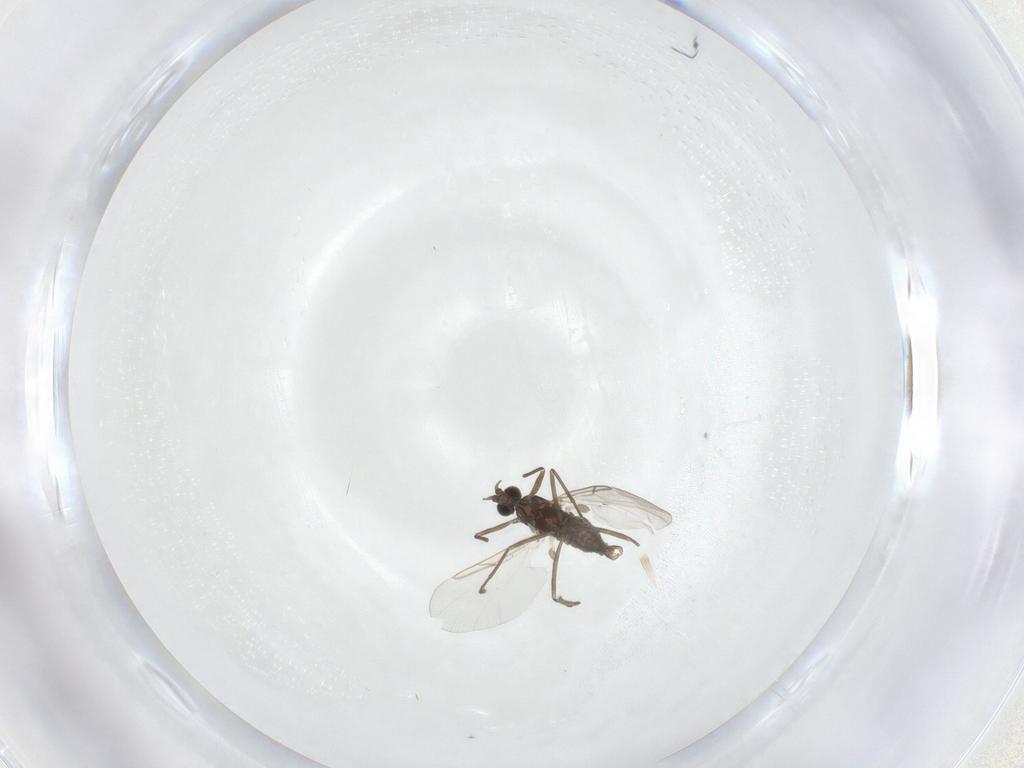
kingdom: Animalia
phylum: Arthropoda
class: Insecta
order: Diptera
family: Cecidomyiidae
